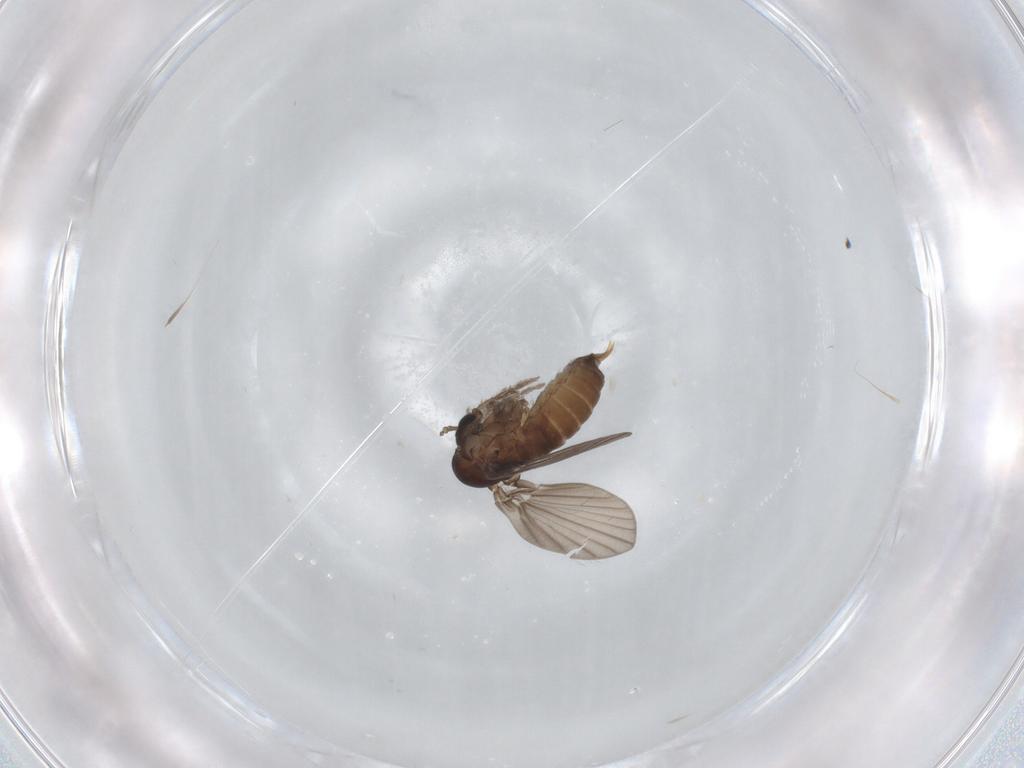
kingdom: Animalia
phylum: Arthropoda
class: Insecta
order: Diptera
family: Psychodidae
